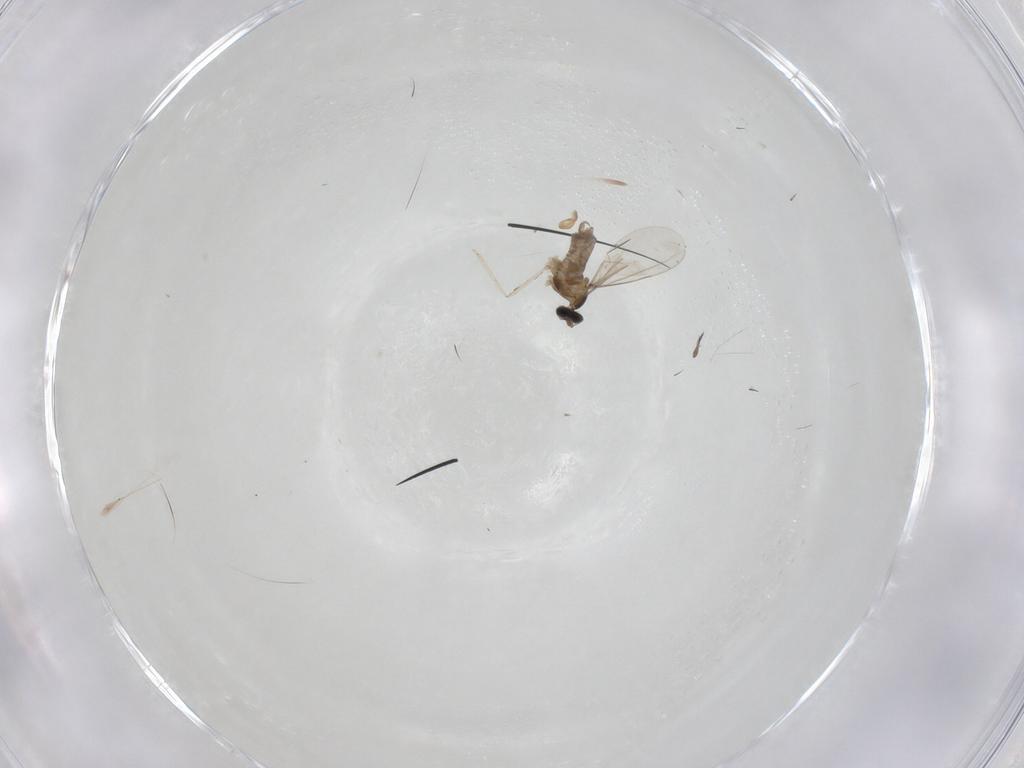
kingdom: Animalia
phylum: Arthropoda
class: Insecta
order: Diptera
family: Cecidomyiidae
